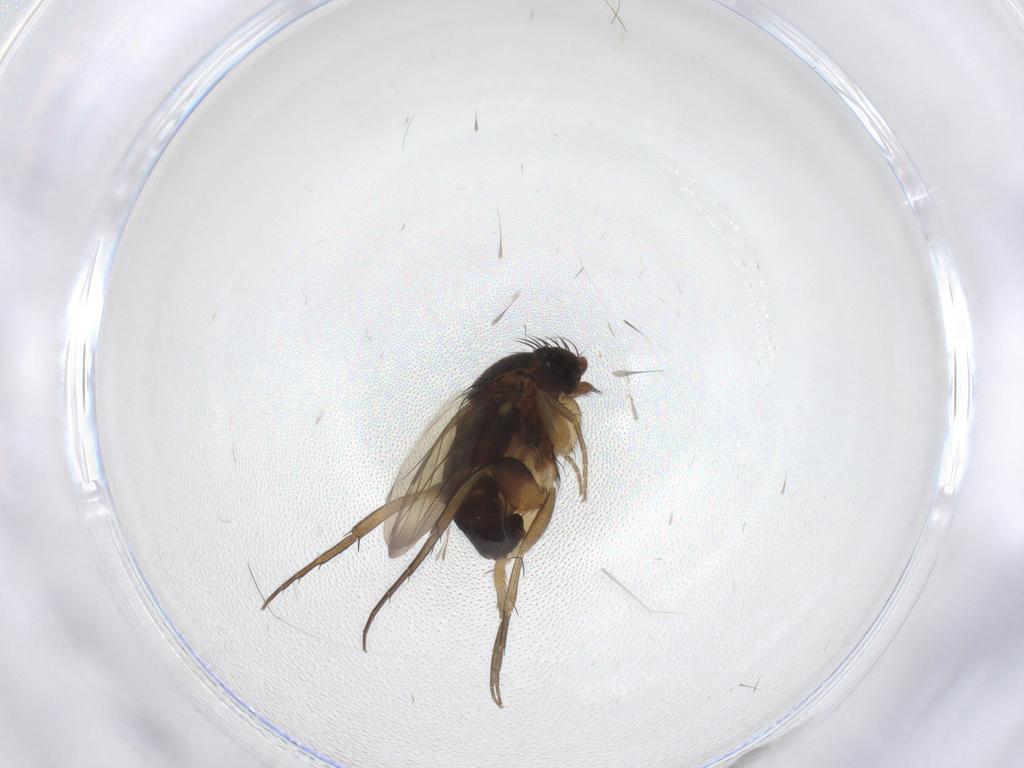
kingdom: Animalia
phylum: Arthropoda
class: Insecta
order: Diptera
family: Phoridae
